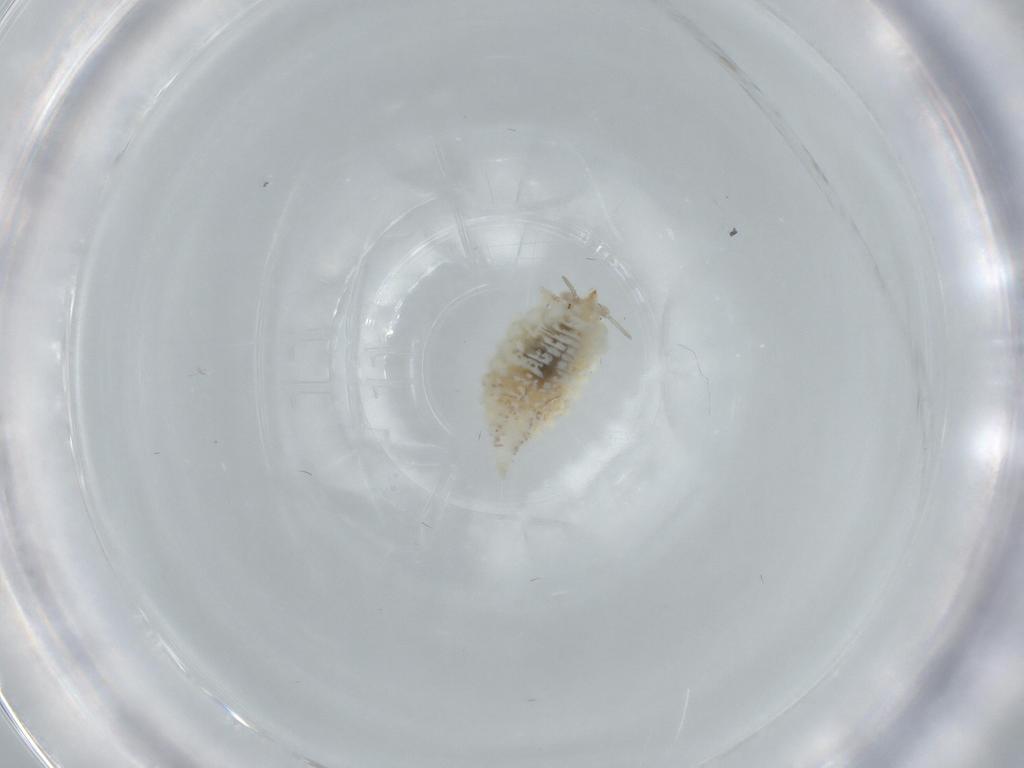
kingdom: Animalia
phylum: Arthropoda
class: Insecta
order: Neuroptera
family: Coniopterygidae
